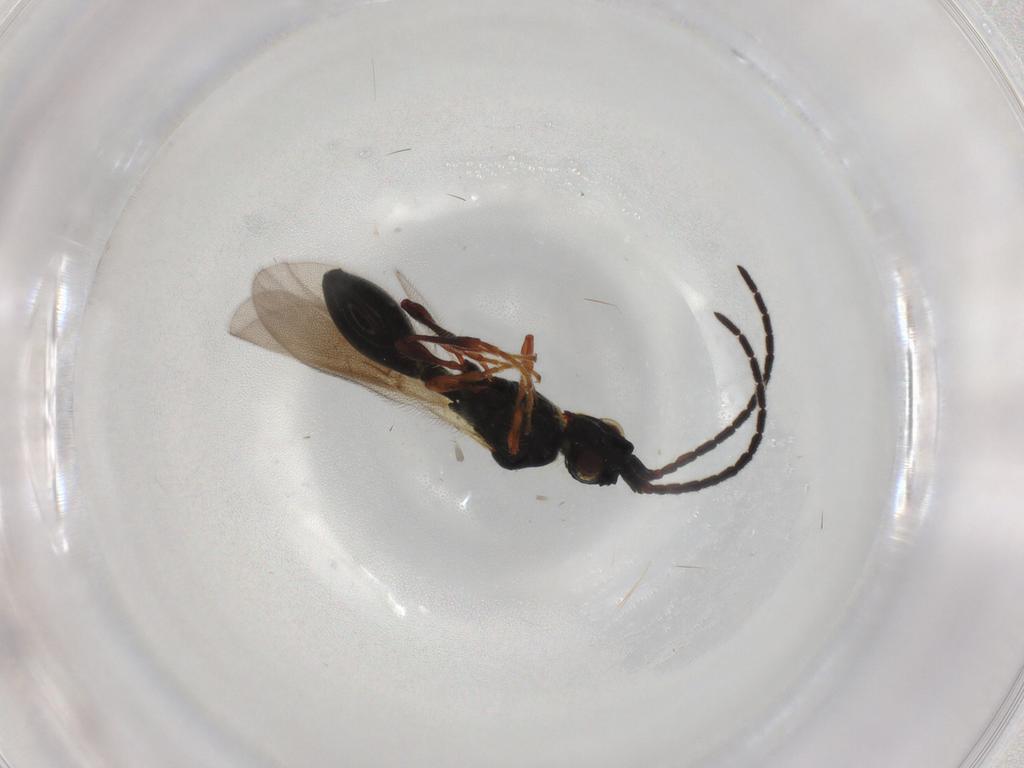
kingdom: Animalia
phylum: Arthropoda
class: Insecta
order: Hymenoptera
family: Diapriidae
